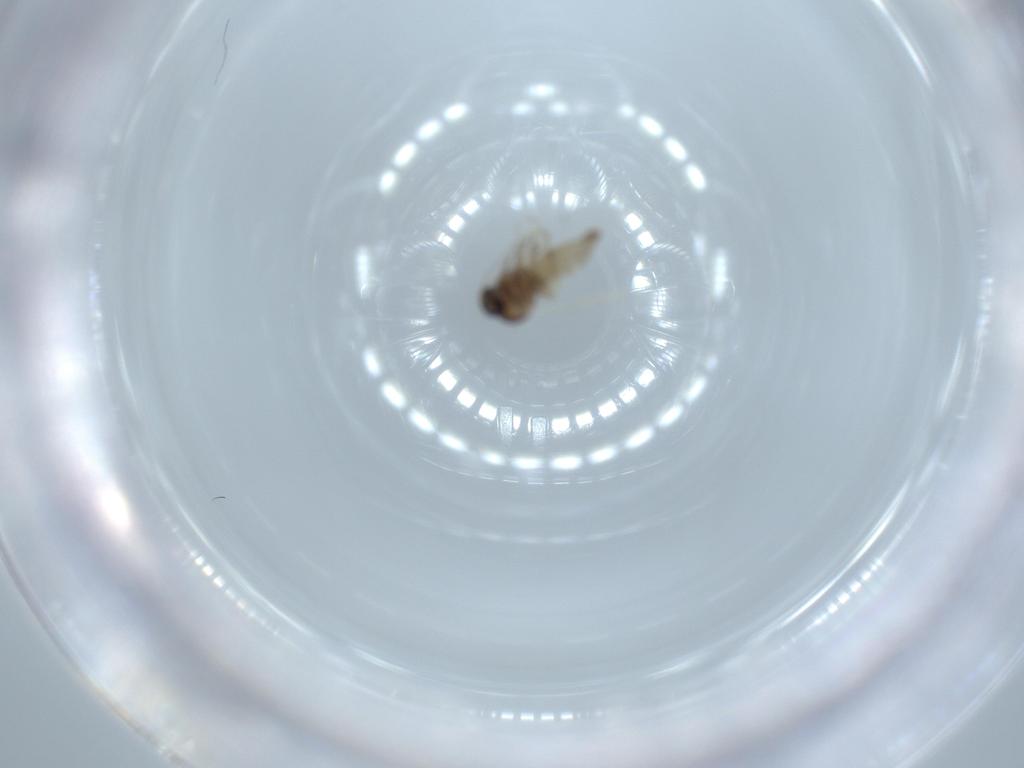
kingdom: Animalia
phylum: Arthropoda
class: Insecta
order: Diptera
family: Ceratopogonidae
